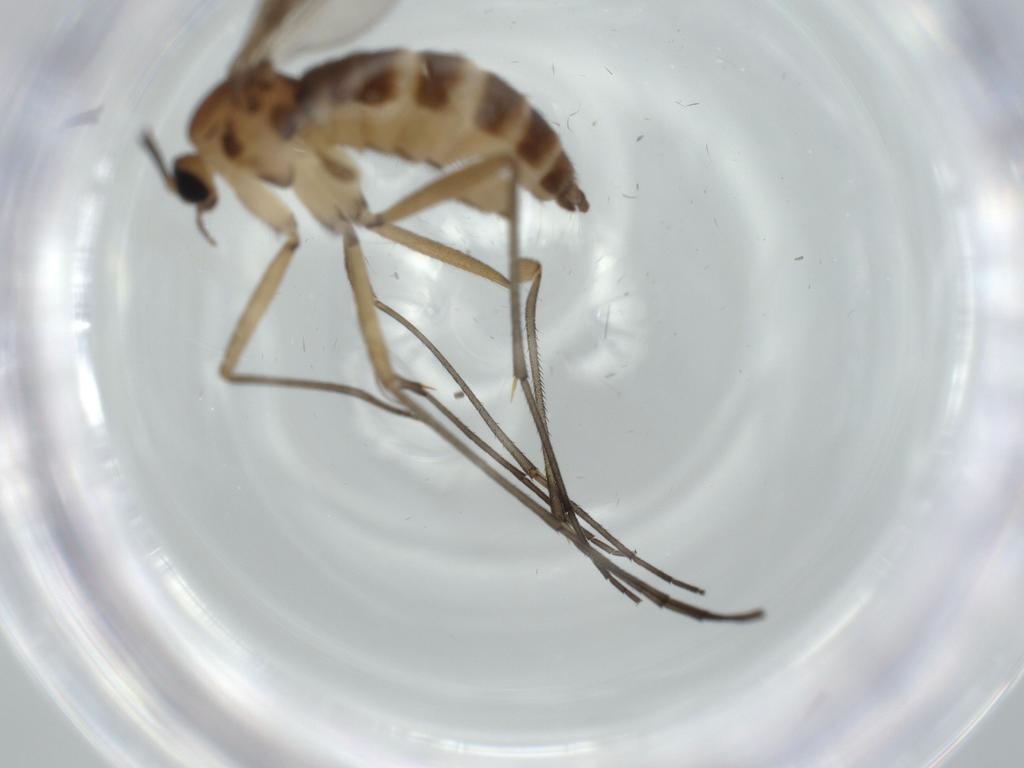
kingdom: Animalia
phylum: Arthropoda
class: Insecta
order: Diptera
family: Sciaridae
